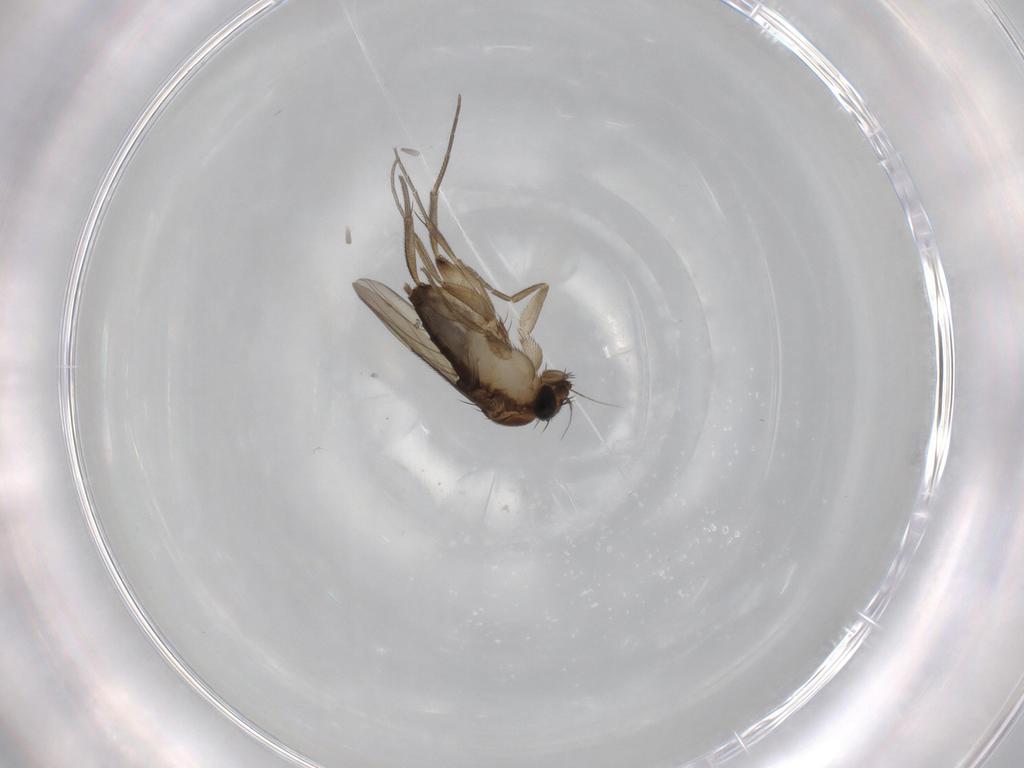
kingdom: Animalia
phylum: Arthropoda
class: Insecta
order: Diptera
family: Phoridae
